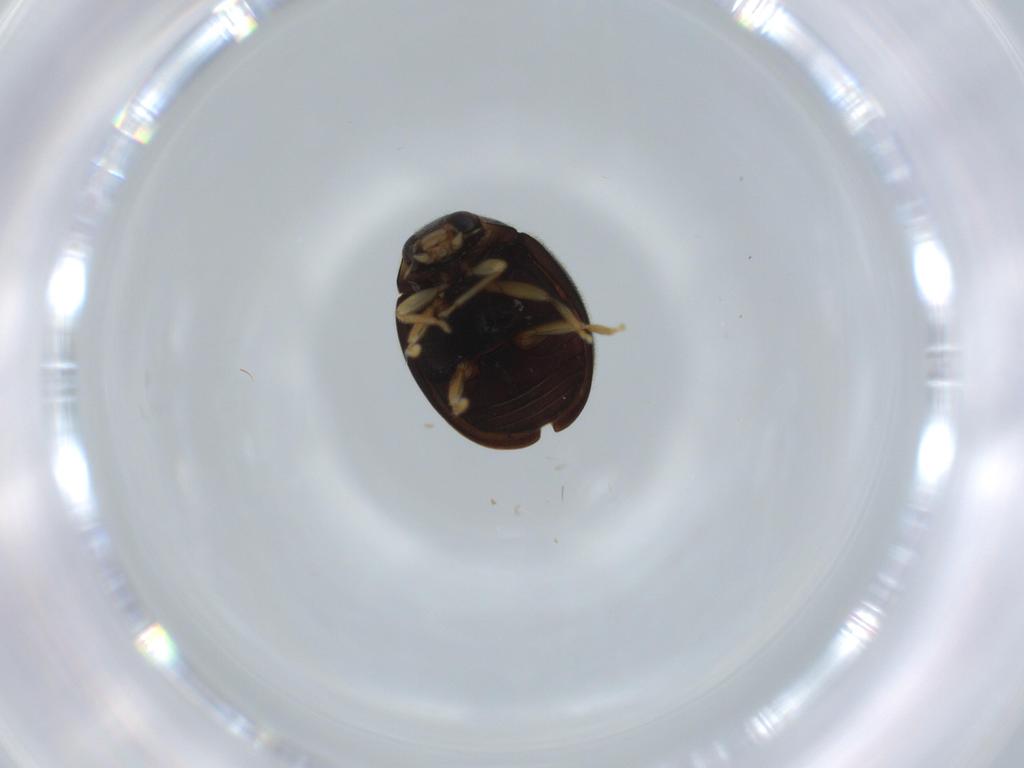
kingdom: Animalia
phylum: Arthropoda
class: Insecta
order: Coleoptera
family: Coccinellidae
